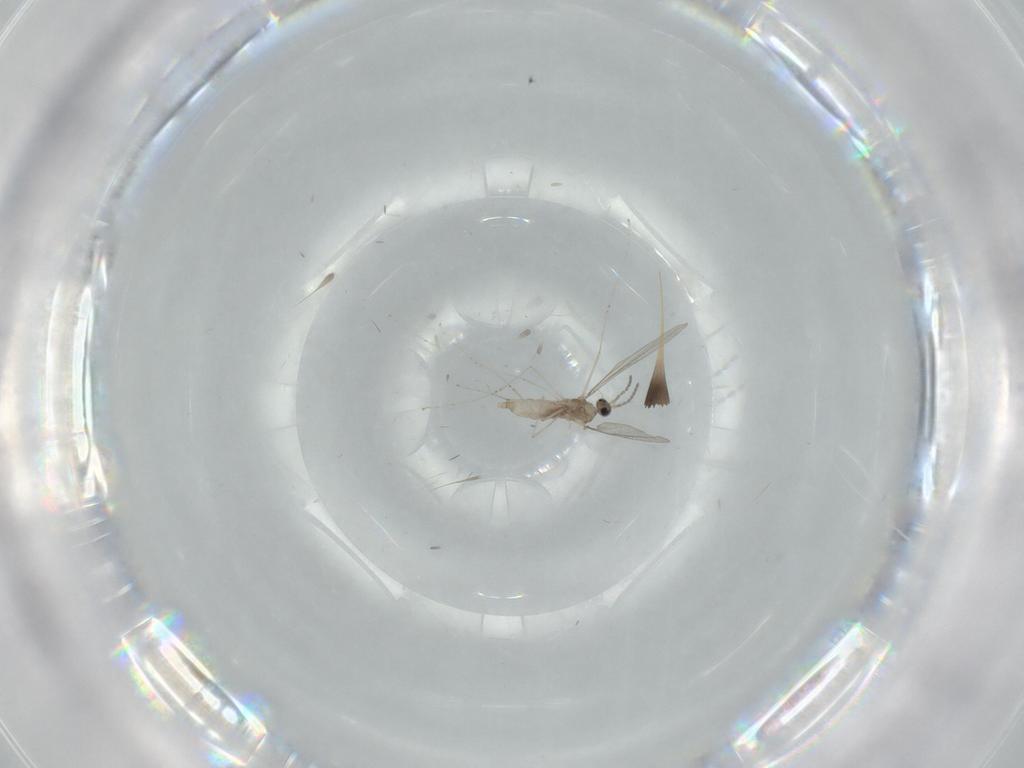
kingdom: Animalia
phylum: Arthropoda
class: Insecta
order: Diptera
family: Cecidomyiidae
